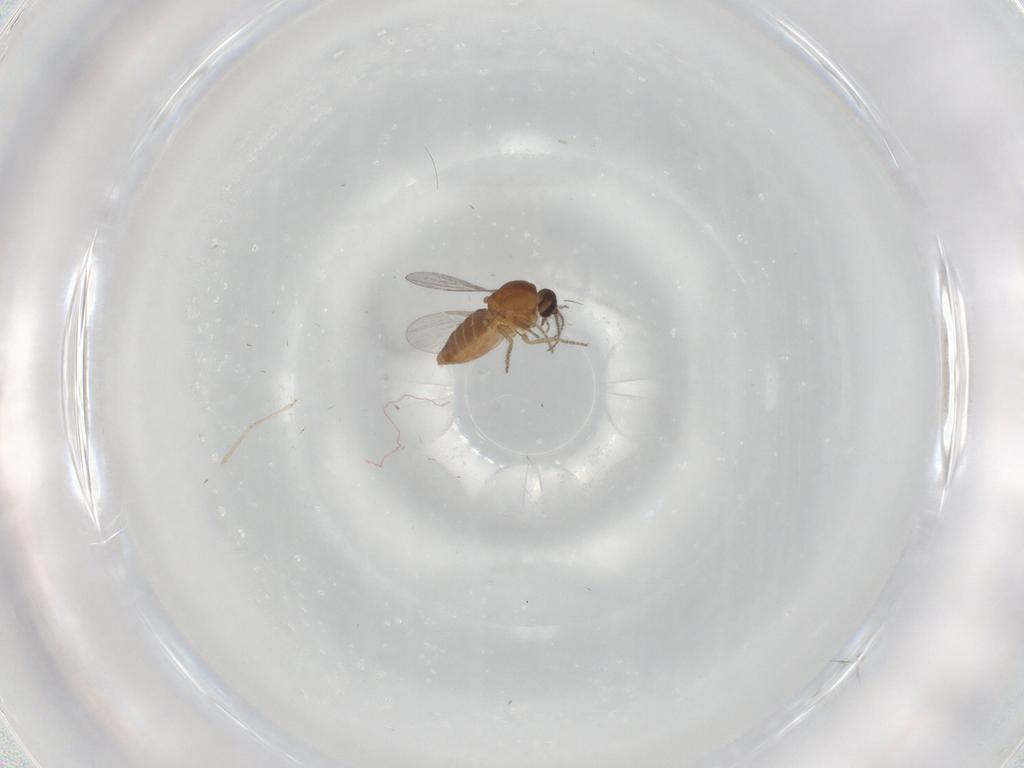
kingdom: Animalia
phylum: Arthropoda
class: Insecta
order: Diptera
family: Ceratopogonidae
